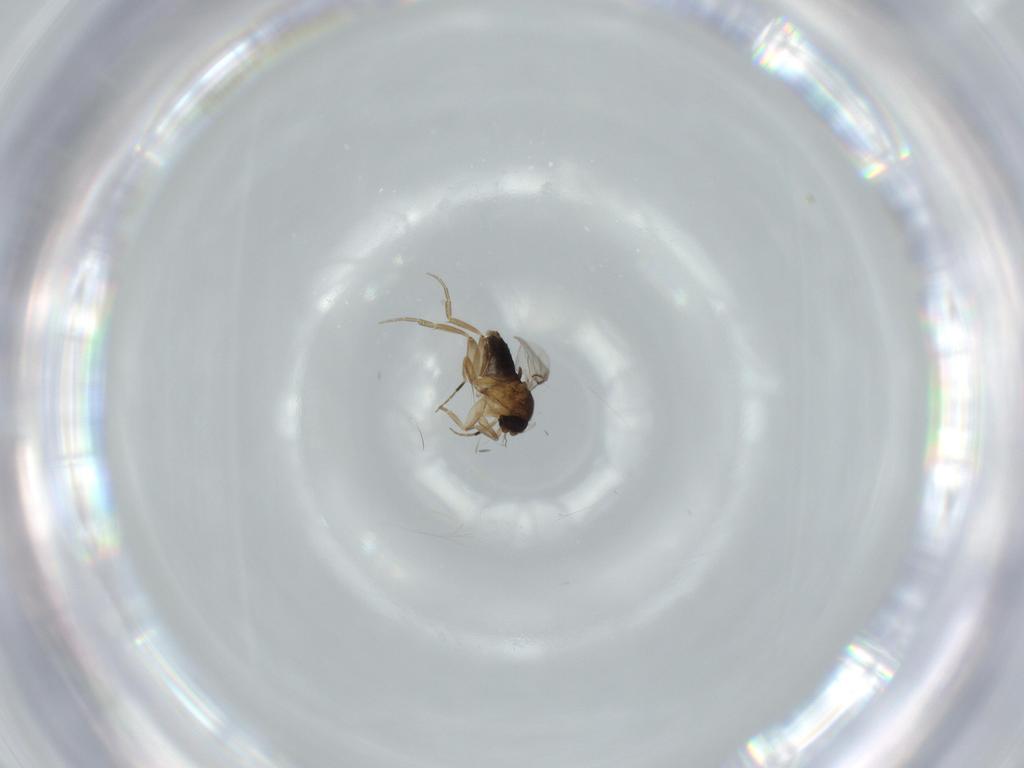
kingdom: Animalia
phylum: Arthropoda
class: Insecta
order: Diptera
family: Phoridae
